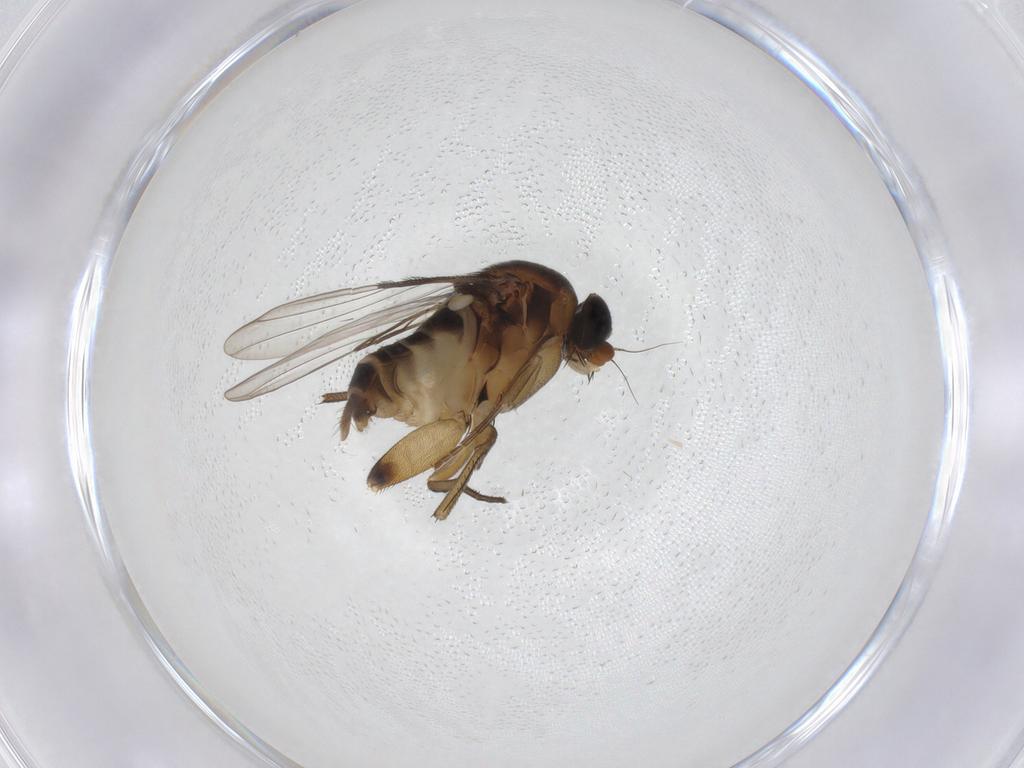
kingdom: Animalia
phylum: Arthropoda
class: Insecta
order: Diptera
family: Phoridae
